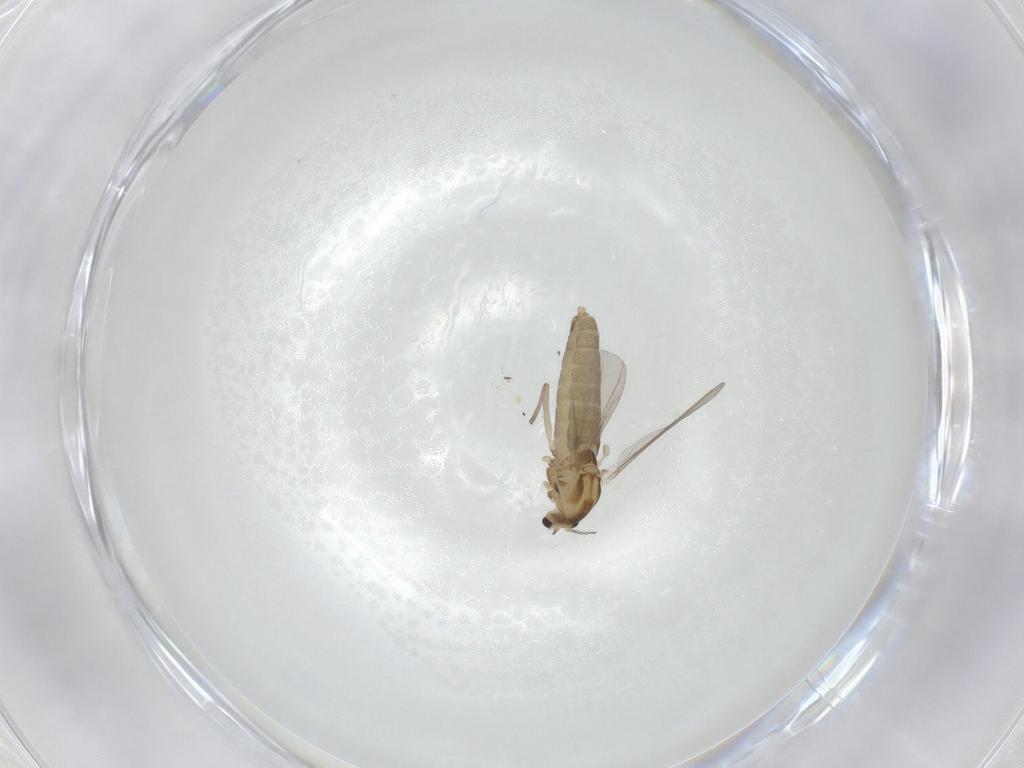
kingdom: Animalia
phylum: Arthropoda
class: Insecta
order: Diptera
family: Chironomidae
